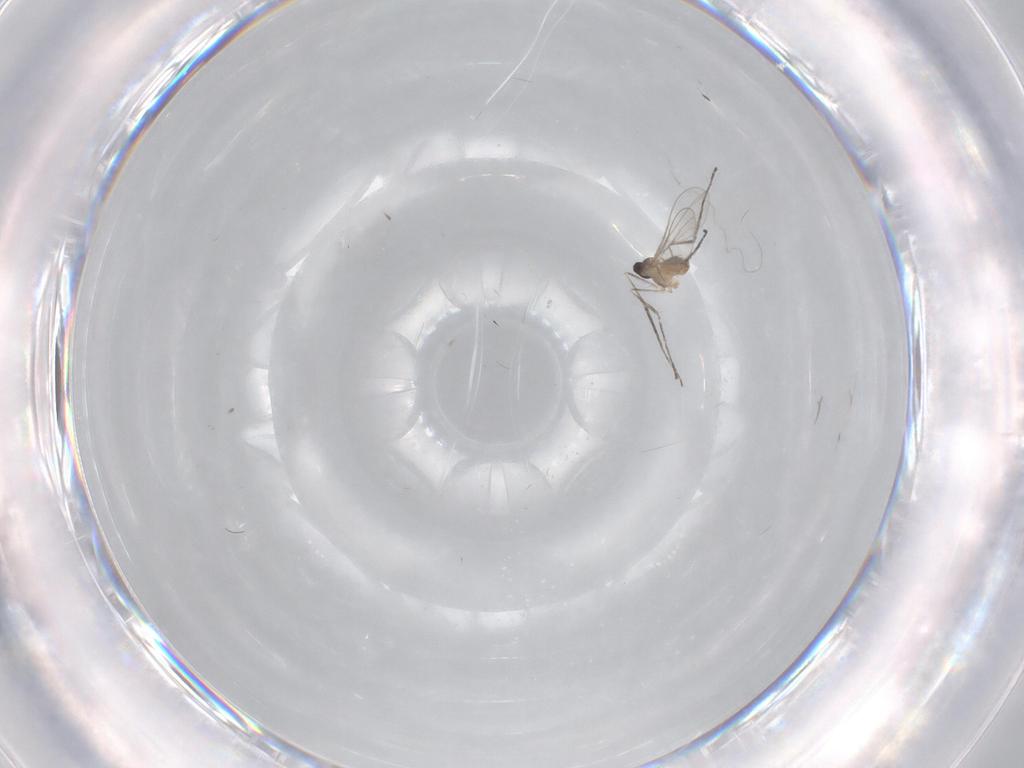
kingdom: Animalia
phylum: Arthropoda
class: Insecta
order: Diptera
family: Cecidomyiidae
